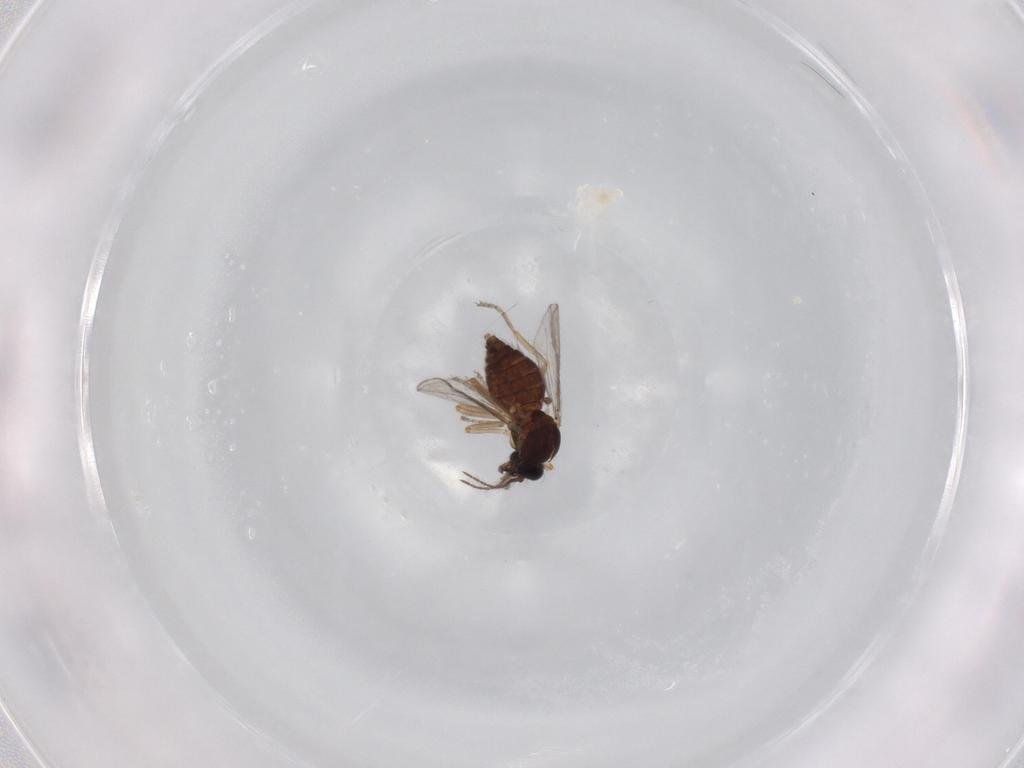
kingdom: Animalia
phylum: Arthropoda
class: Insecta
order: Diptera
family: Ceratopogonidae
